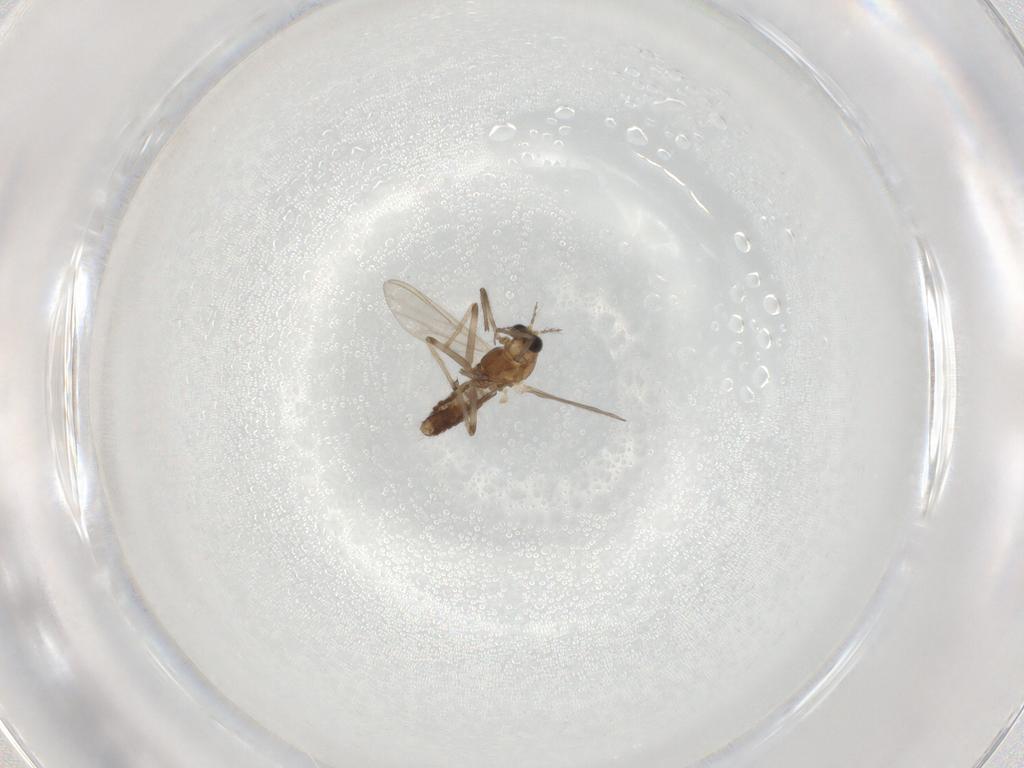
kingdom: Animalia
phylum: Arthropoda
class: Insecta
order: Diptera
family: Chironomidae
